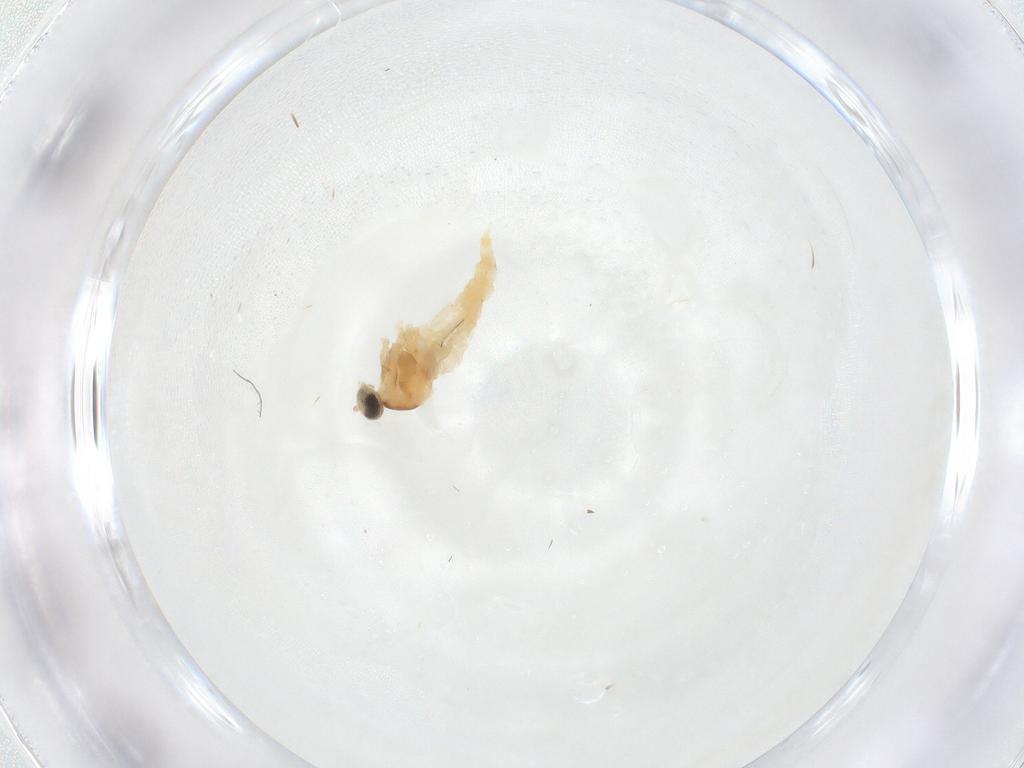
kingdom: Animalia
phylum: Arthropoda
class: Insecta
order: Diptera
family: Cecidomyiidae
